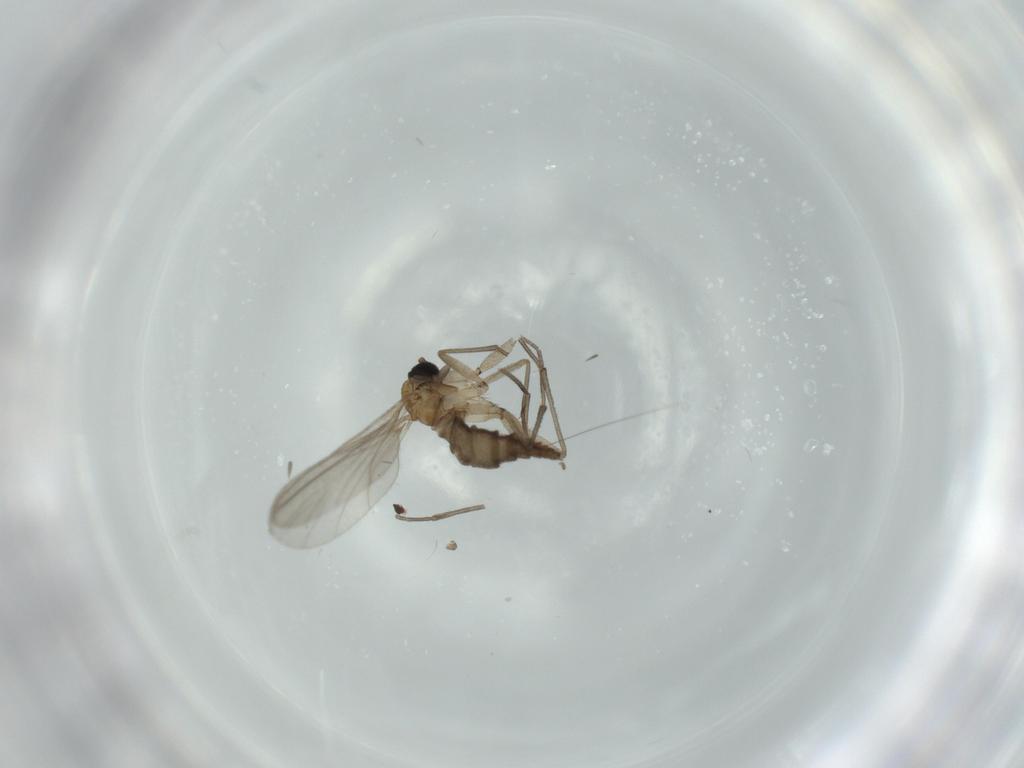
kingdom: Animalia
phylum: Arthropoda
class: Insecta
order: Diptera
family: Sciaridae
